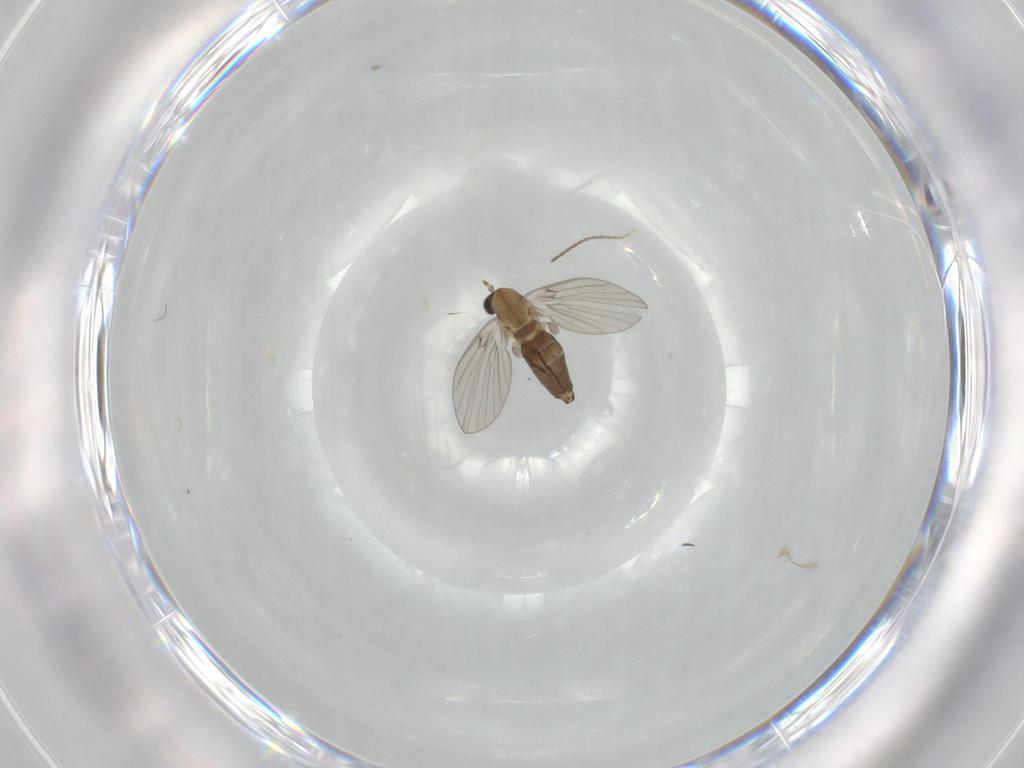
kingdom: Animalia
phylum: Arthropoda
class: Insecta
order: Diptera
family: Cecidomyiidae
